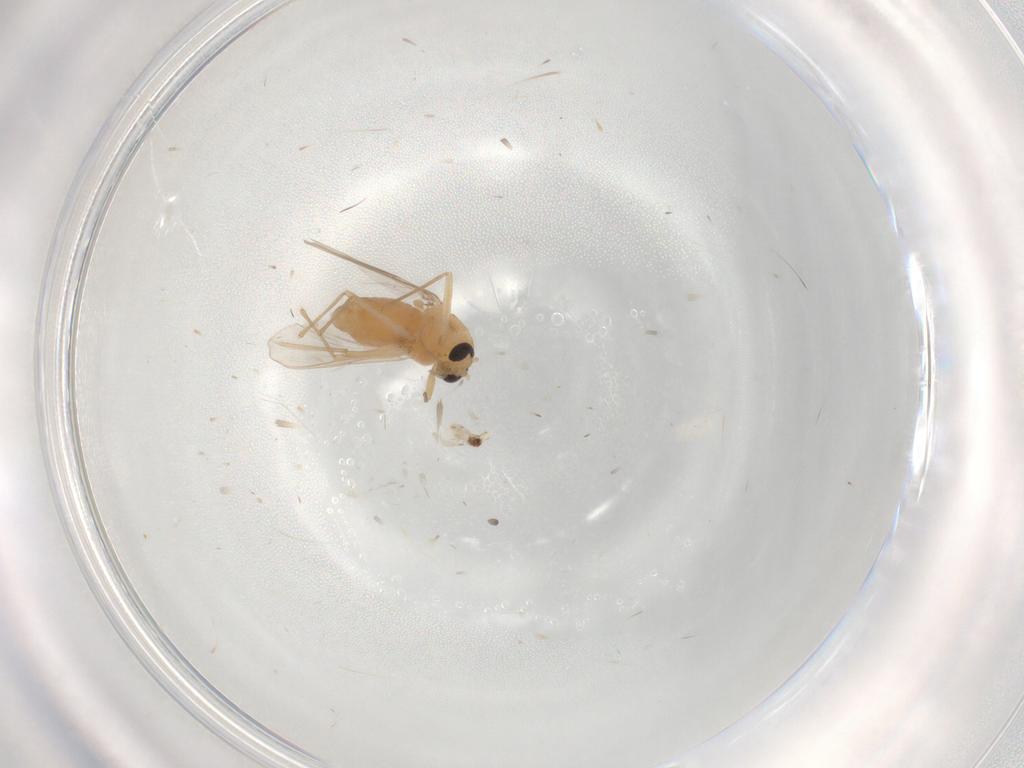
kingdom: Animalia
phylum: Arthropoda
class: Insecta
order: Diptera
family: Chironomidae
